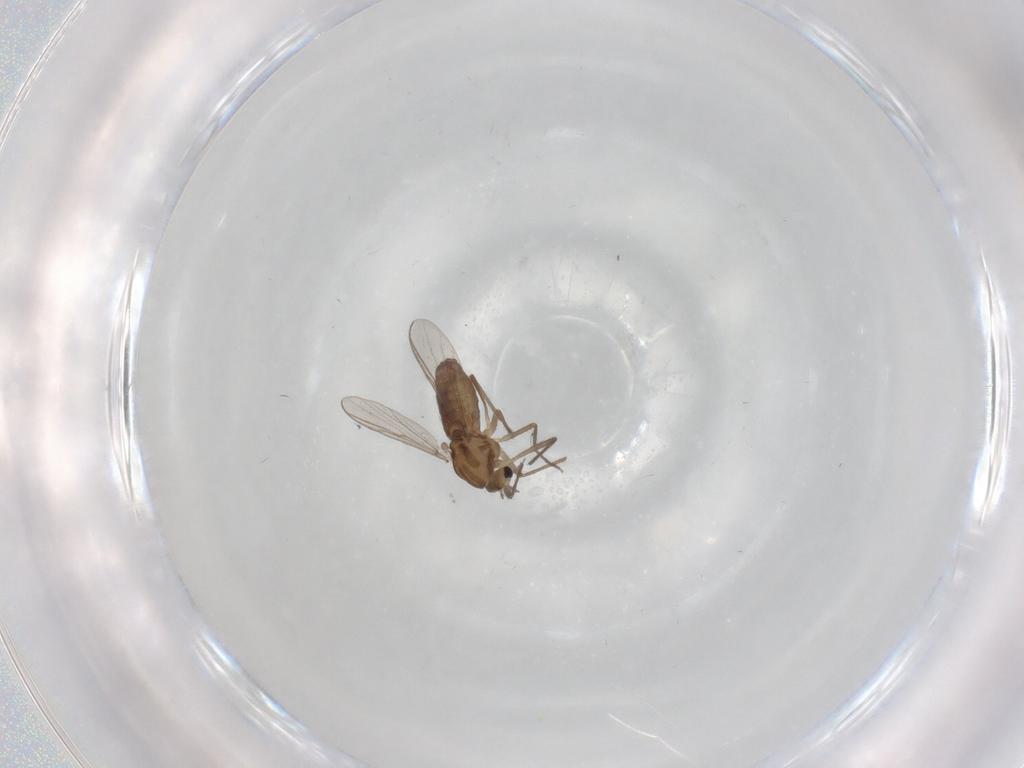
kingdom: Animalia
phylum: Arthropoda
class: Insecta
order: Diptera
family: Chironomidae
